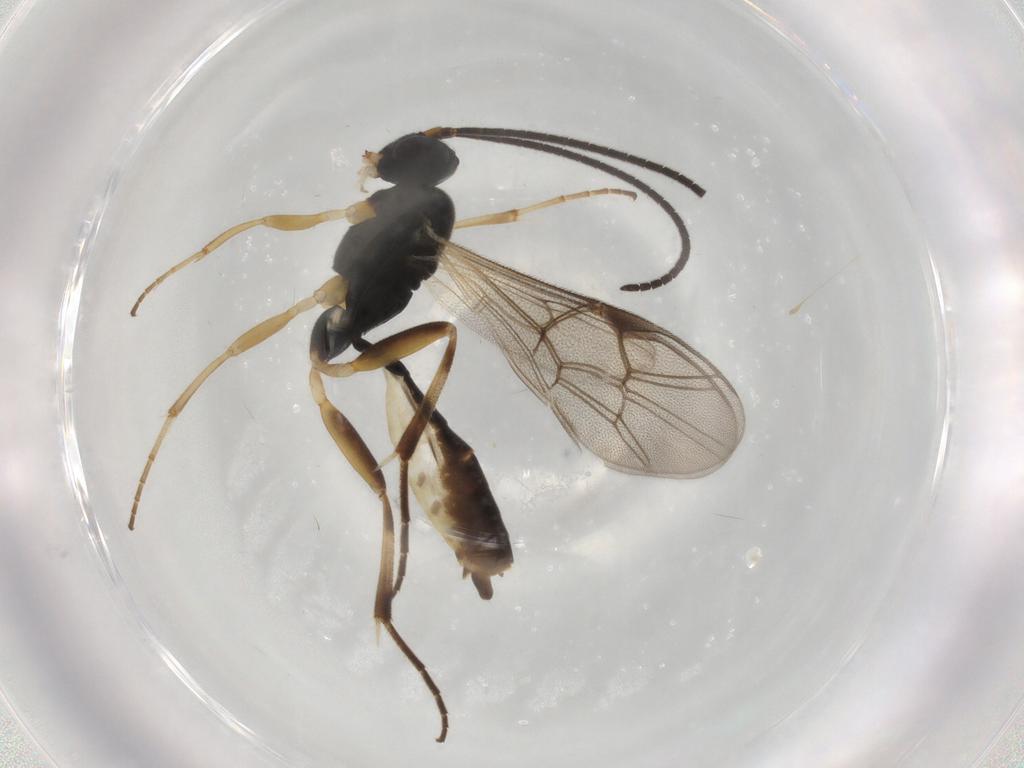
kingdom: Animalia
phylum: Arthropoda
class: Insecta
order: Hymenoptera
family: Ichneumonidae
